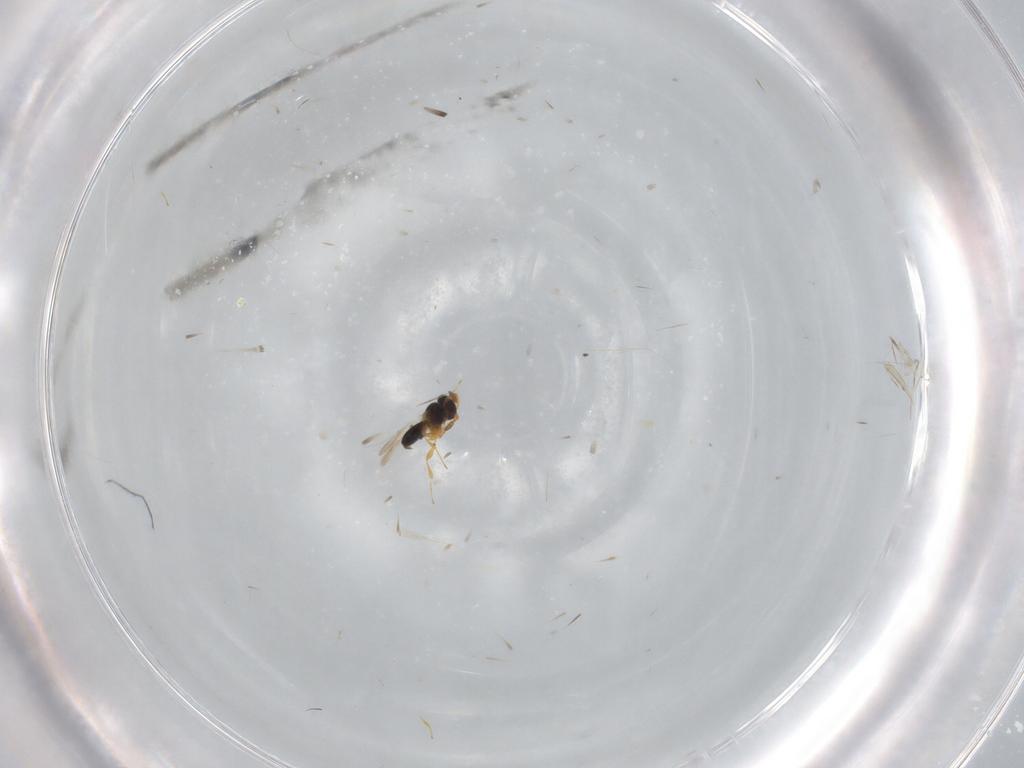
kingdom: Animalia
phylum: Arthropoda
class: Insecta
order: Hymenoptera
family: Platygastridae
